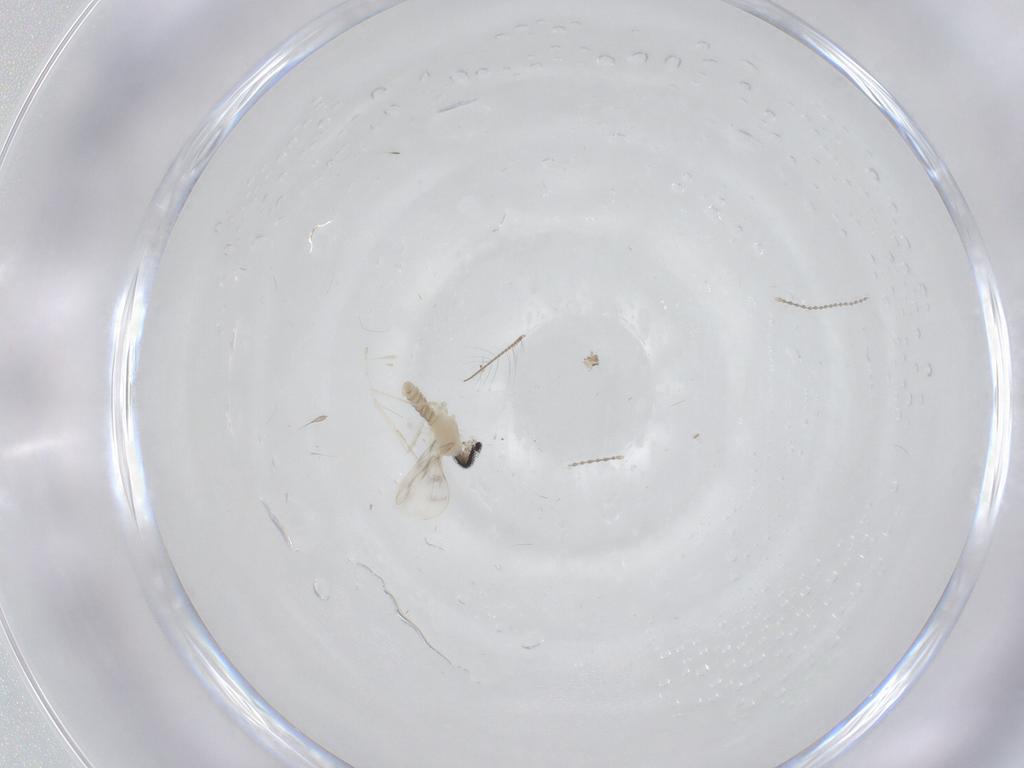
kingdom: Animalia
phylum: Arthropoda
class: Insecta
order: Diptera
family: Cecidomyiidae
